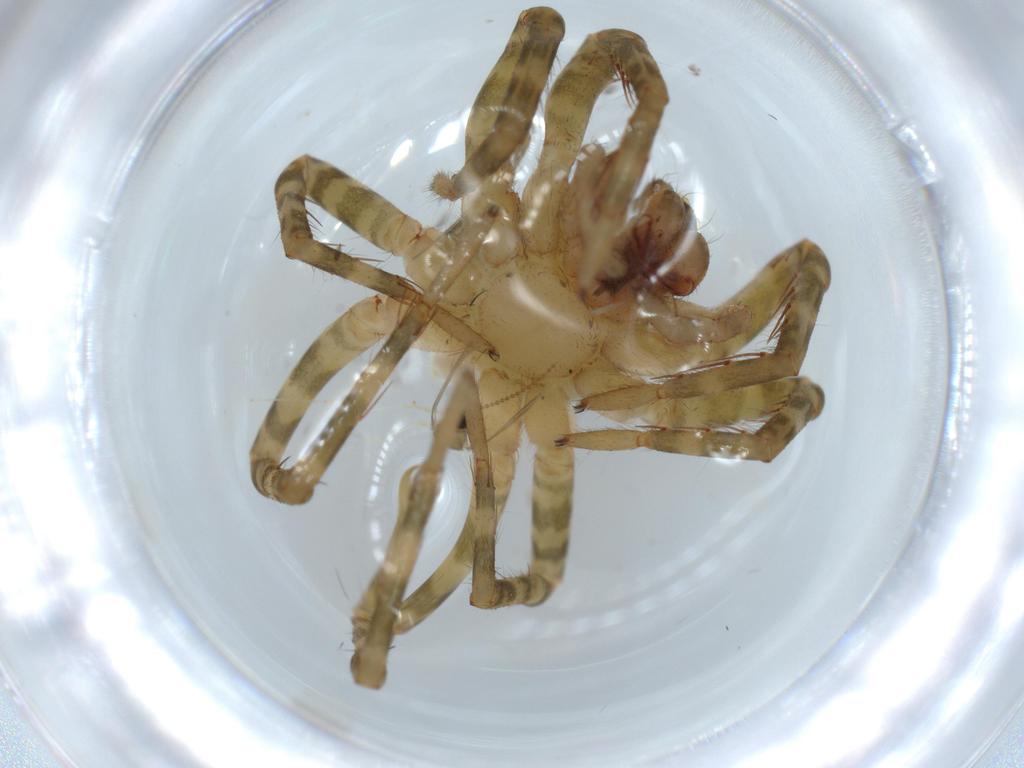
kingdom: Animalia
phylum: Arthropoda
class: Arachnida
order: Araneae
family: Ctenidae
